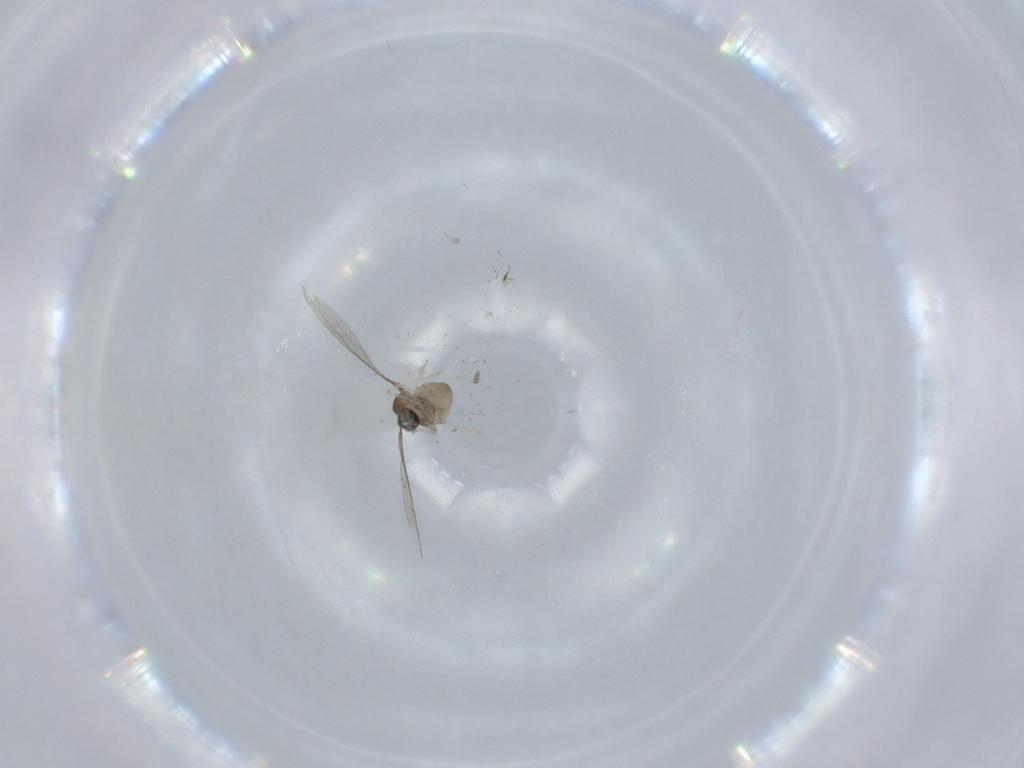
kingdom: Animalia
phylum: Arthropoda
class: Insecta
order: Diptera
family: Cecidomyiidae
